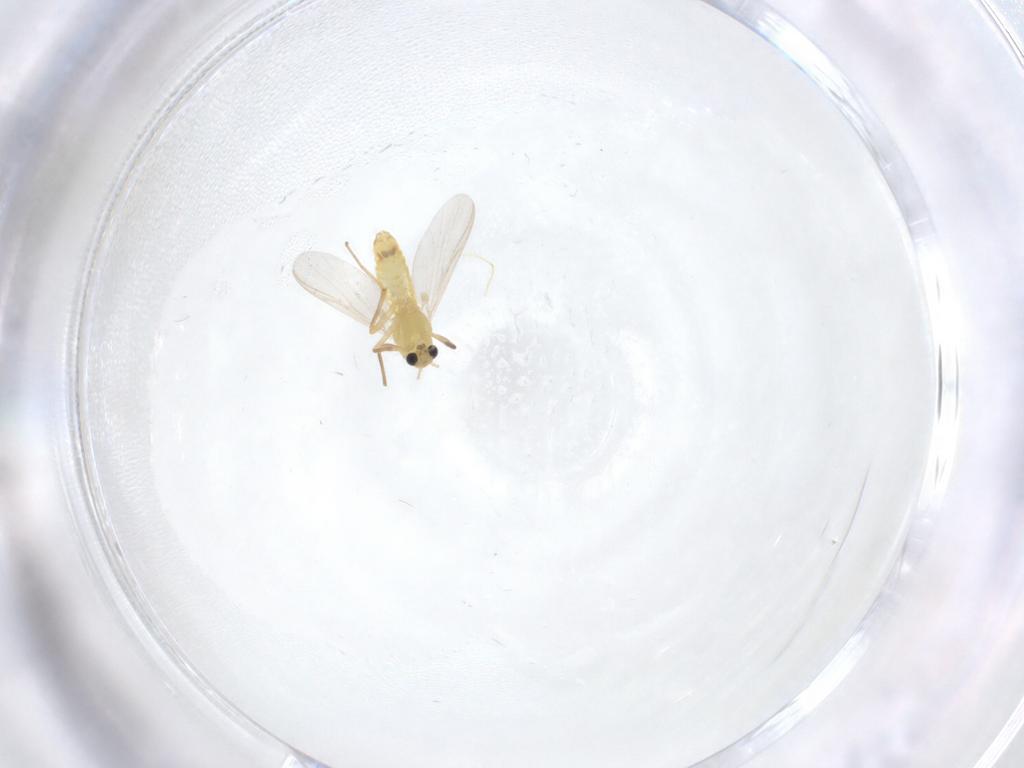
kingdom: Animalia
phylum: Arthropoda
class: Insecta
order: Diptera
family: Chironomidae
